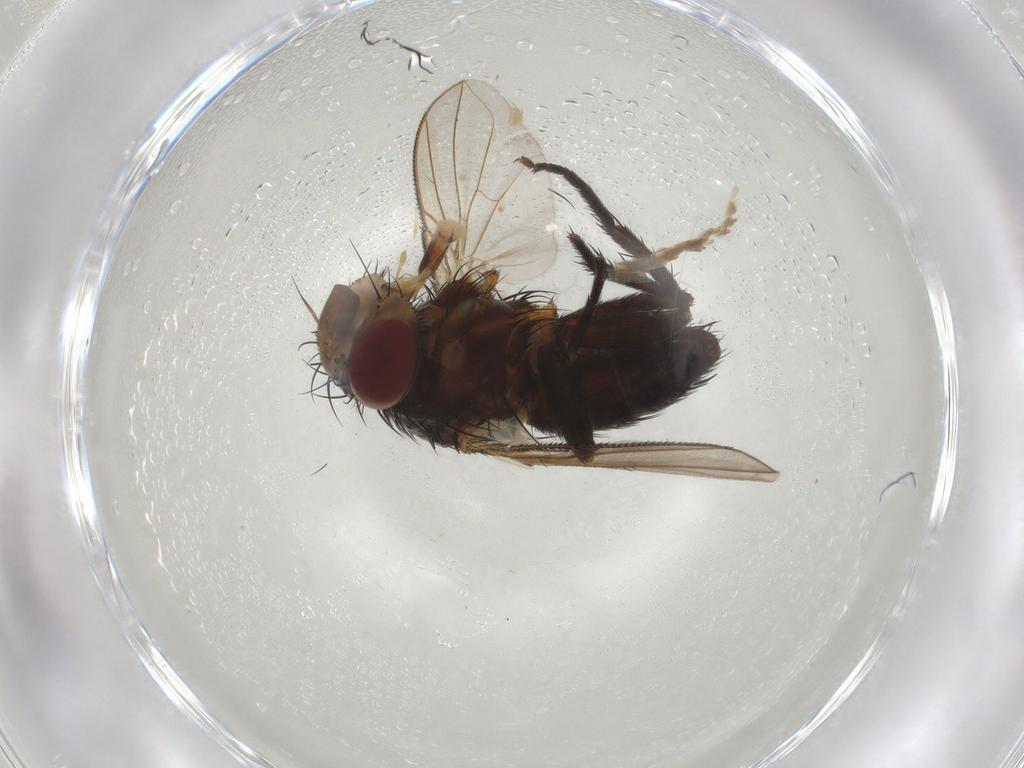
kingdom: Animalia
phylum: Arthropoda
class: Insecta
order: Diptera
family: Tachinidae
